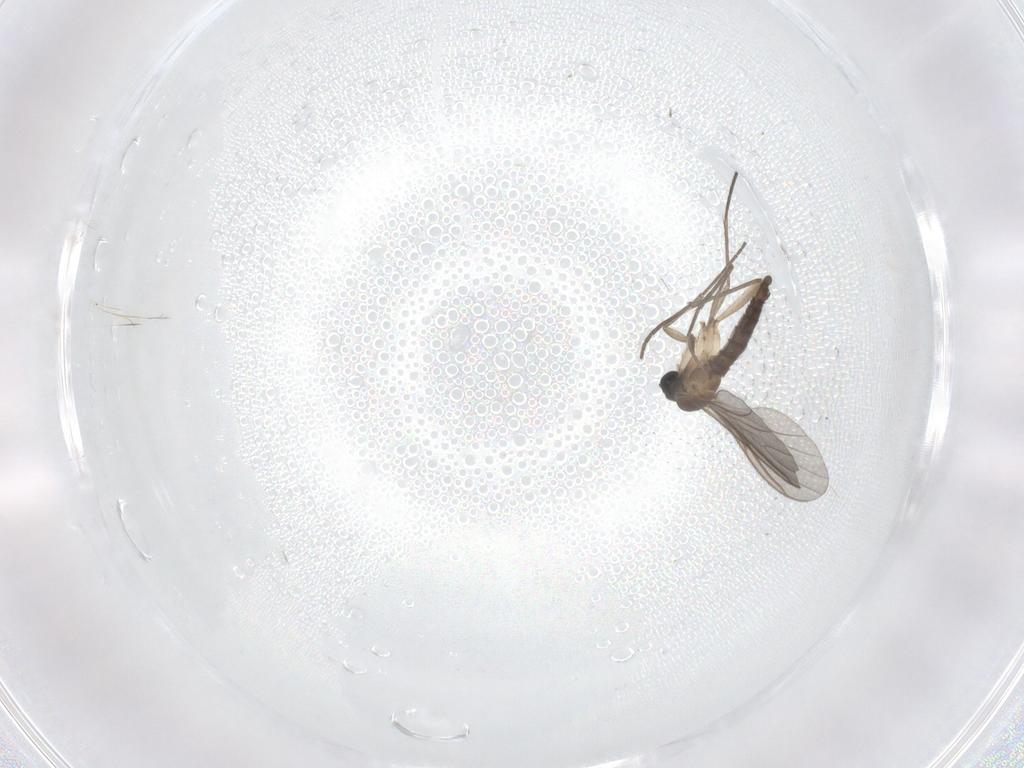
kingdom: Animalia
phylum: Arthropoda
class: Insecta
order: Diptera
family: Sciaridae
